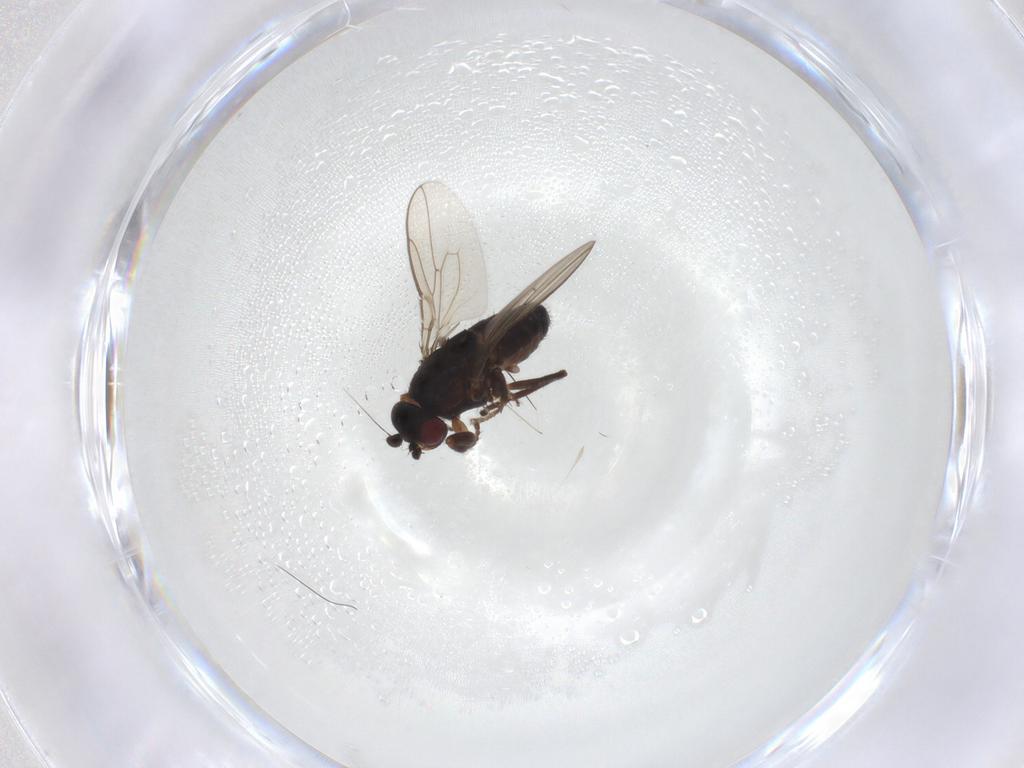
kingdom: Animalia
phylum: Arthropoda
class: Insecta
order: Diptera
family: Sphaeroceridae
